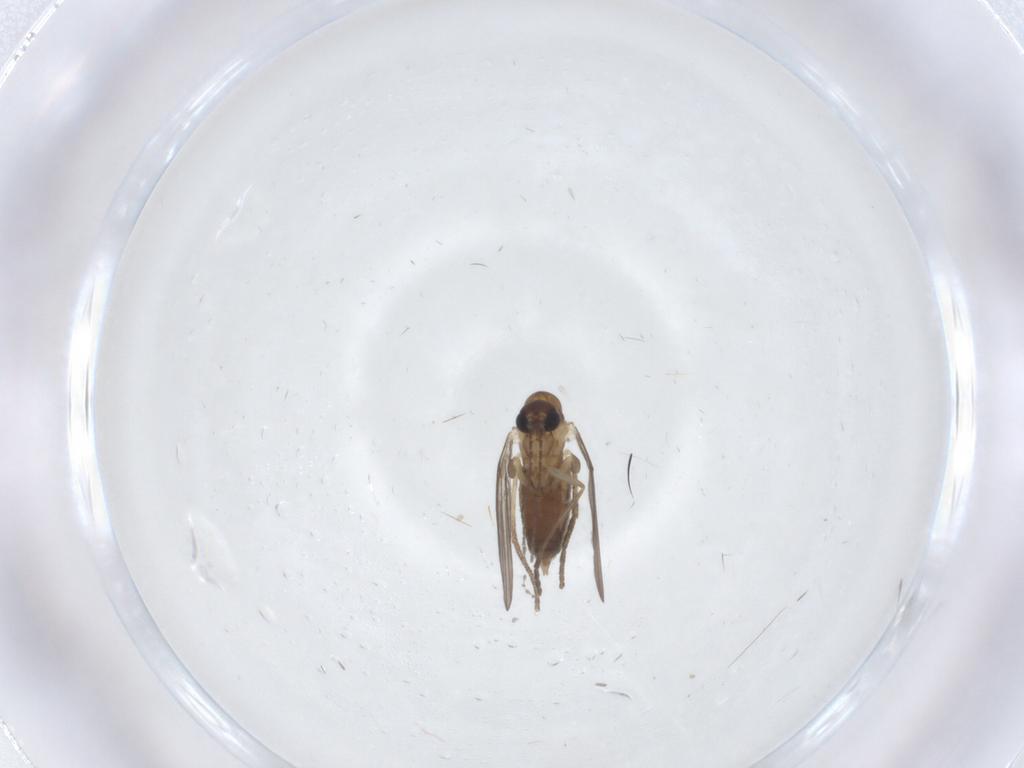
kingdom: Animalia
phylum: Arthropoda
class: Insecta
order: Diptera
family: Cecidomyiidae
